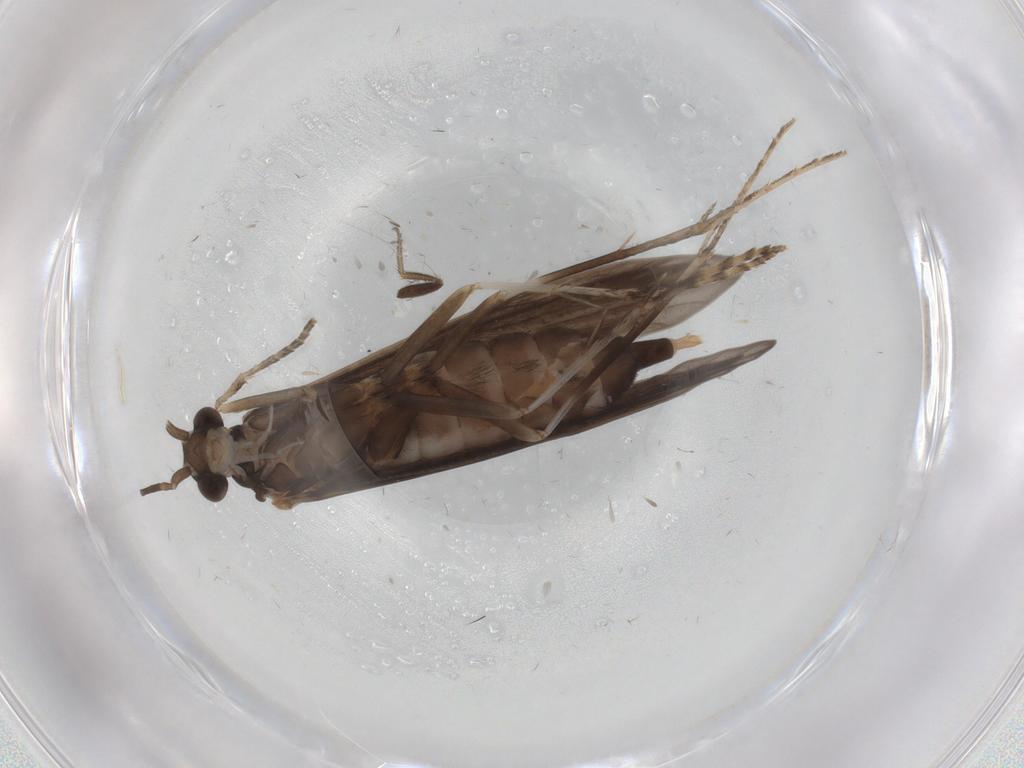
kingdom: Animalia
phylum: Arthropoda
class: Insecta
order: Trichoptera
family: Xiphocentronidae
